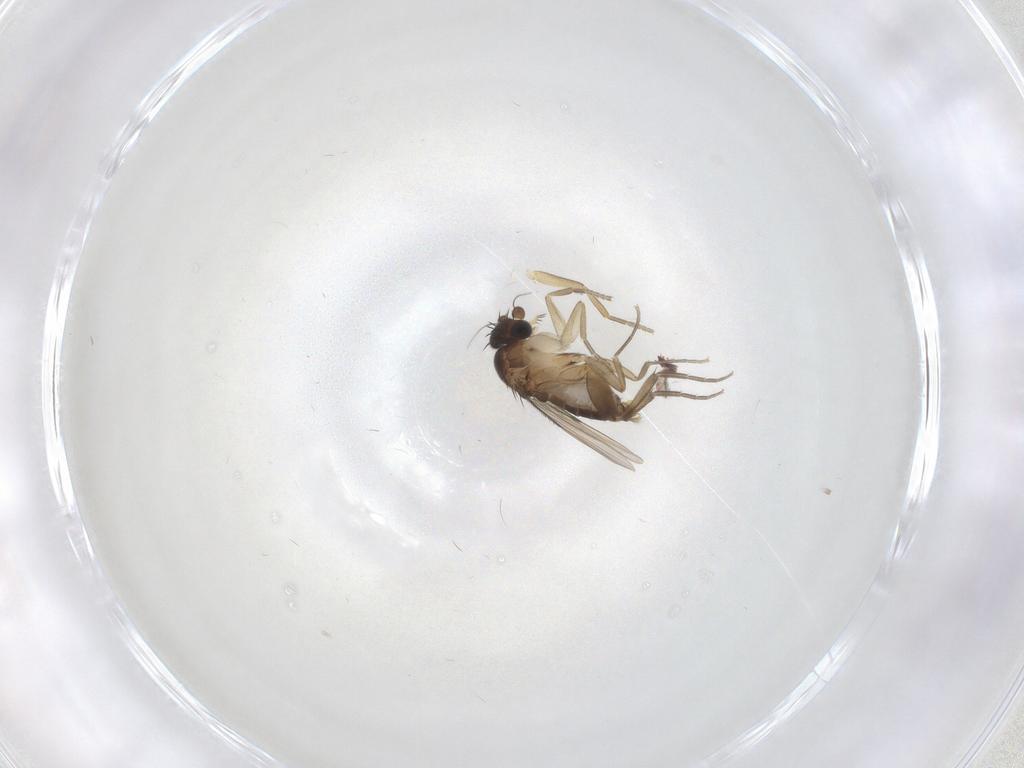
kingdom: Animalia
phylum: Arthropoda
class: Insecta
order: Diptera
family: Phoridae
